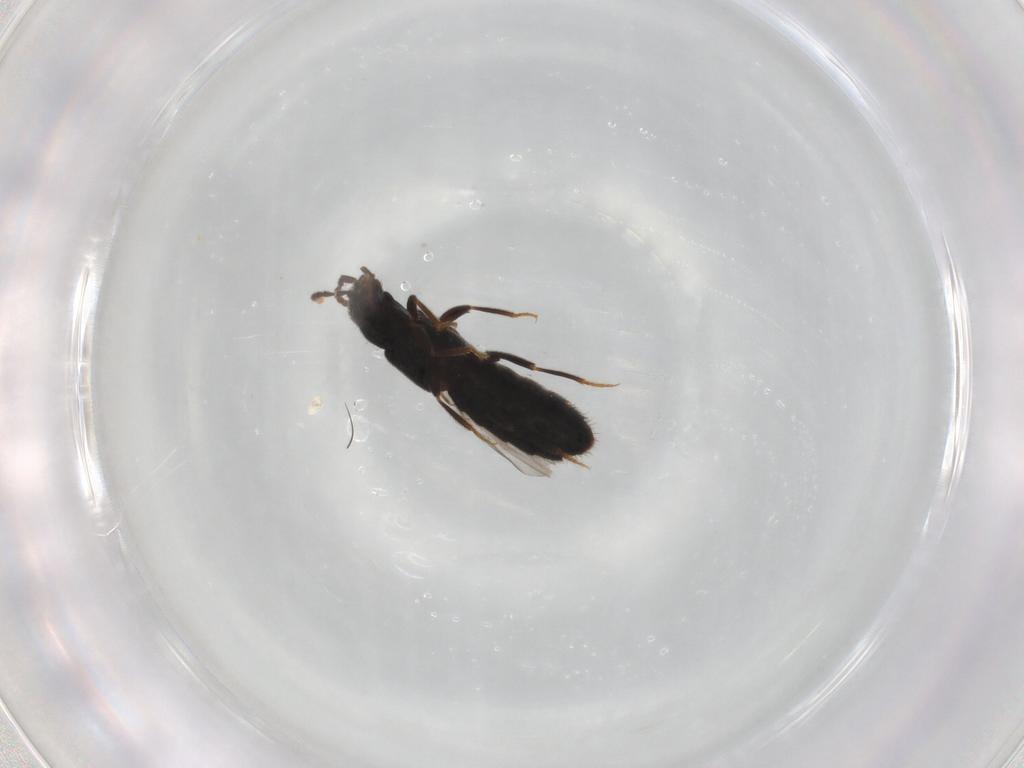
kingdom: Animalia
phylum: Arthropoda
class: Insecta
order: Coleoptera
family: Staphylinidae
